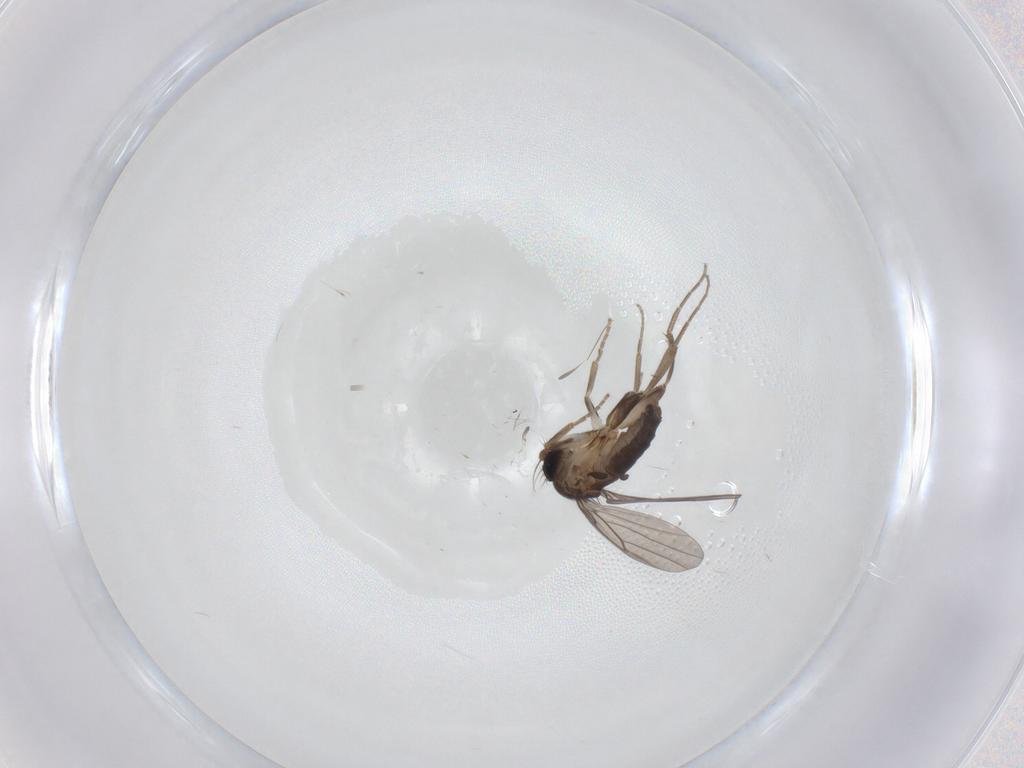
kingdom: Animalia
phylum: Arthropoda
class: Insecta
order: Diptera
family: Mycetophilidae
